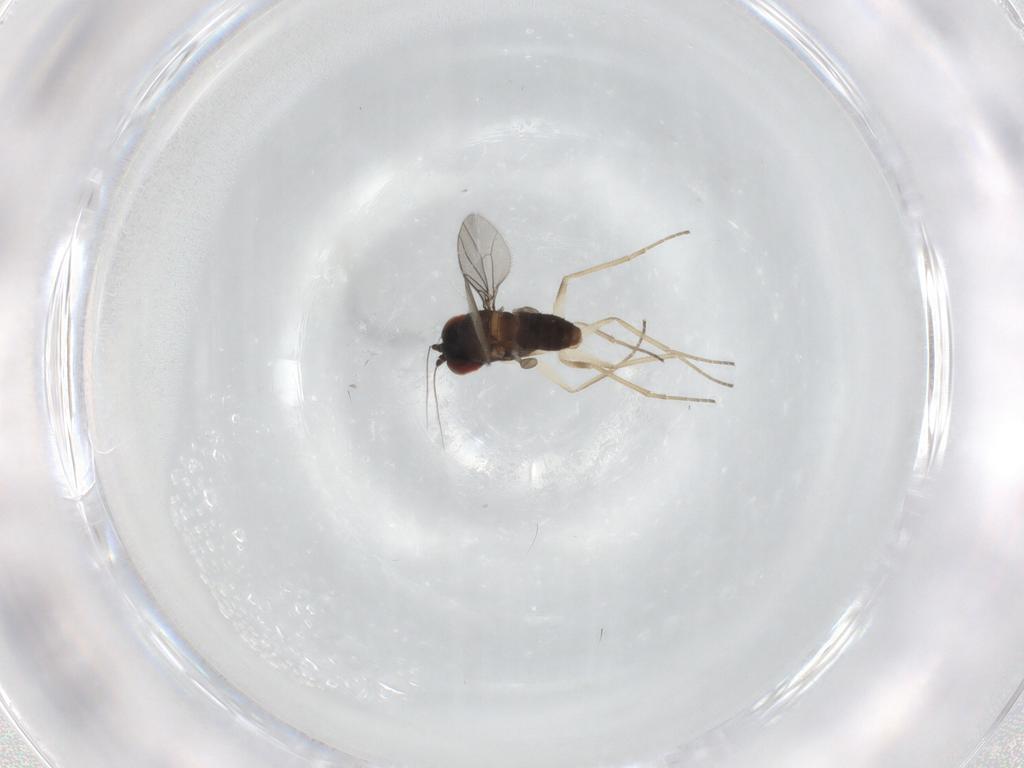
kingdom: Animalia
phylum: Arthropoda
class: Insecta
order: Diptera
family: Dolichopodidae
